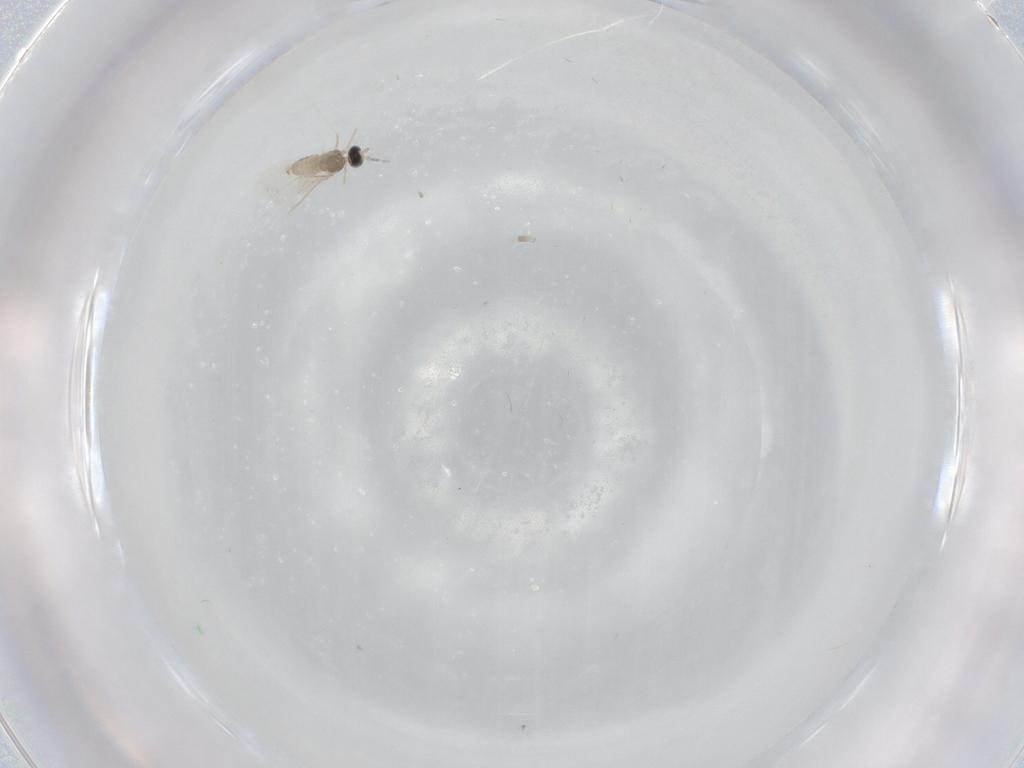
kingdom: Animalia
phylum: Arthropoda
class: Insecta
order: Diptera
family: Cecidomyiidae
